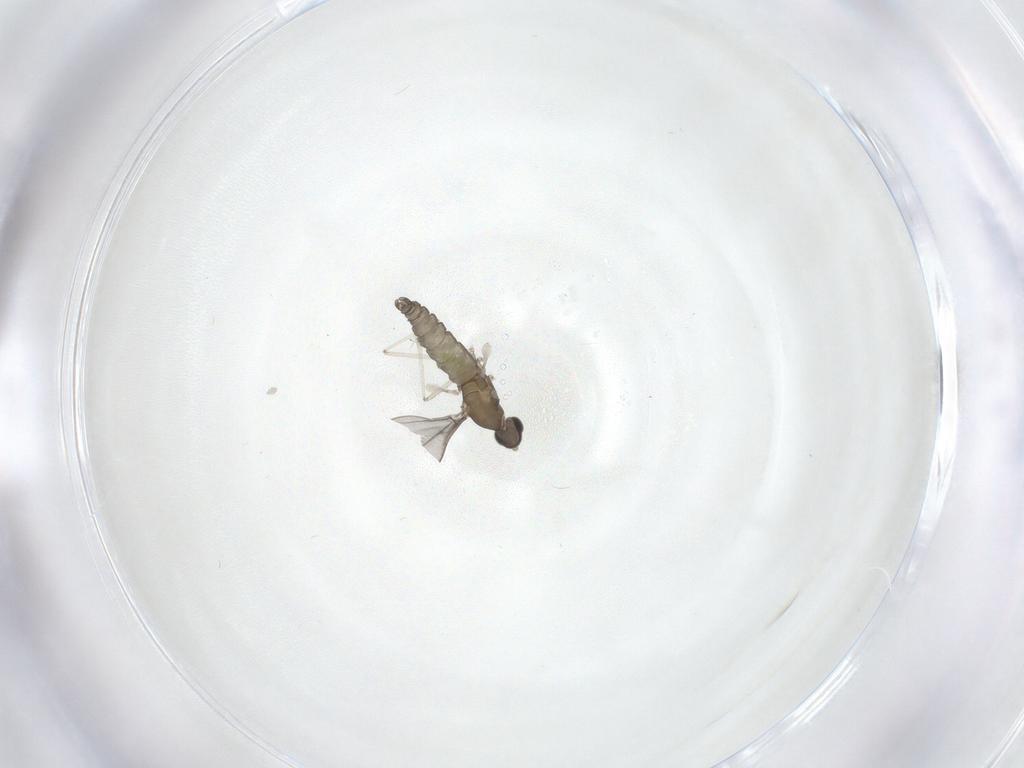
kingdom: Animalia
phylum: Arthropoda
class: Insecta
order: Diptera
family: Cecidomyiidae
